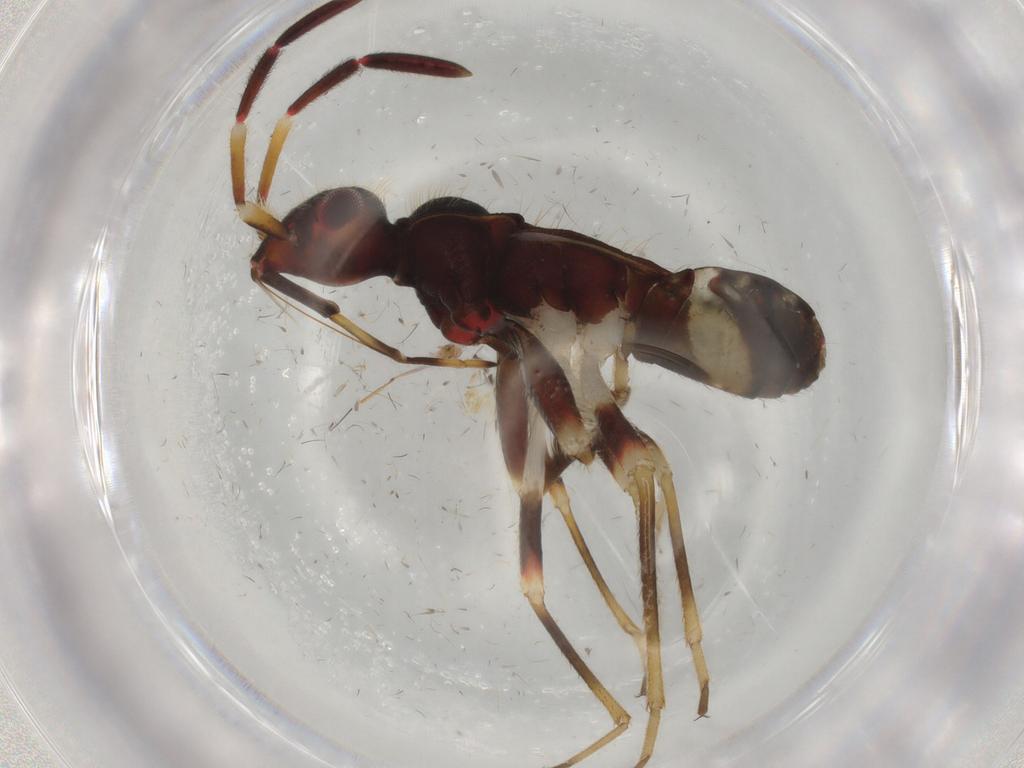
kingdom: Animalia
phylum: Arthropoda
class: Insecta
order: Hemiptera
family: Rhyparochromidae
